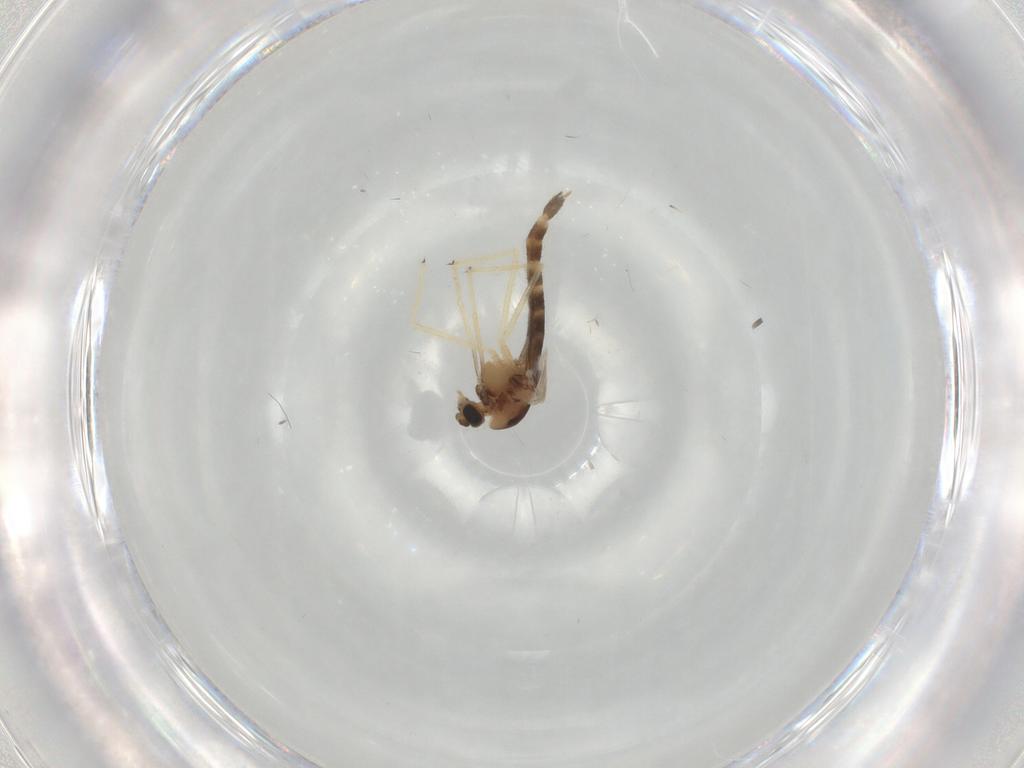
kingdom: Animalia
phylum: Arthropoda
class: Insecta
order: Diptera
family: Chironomidae
